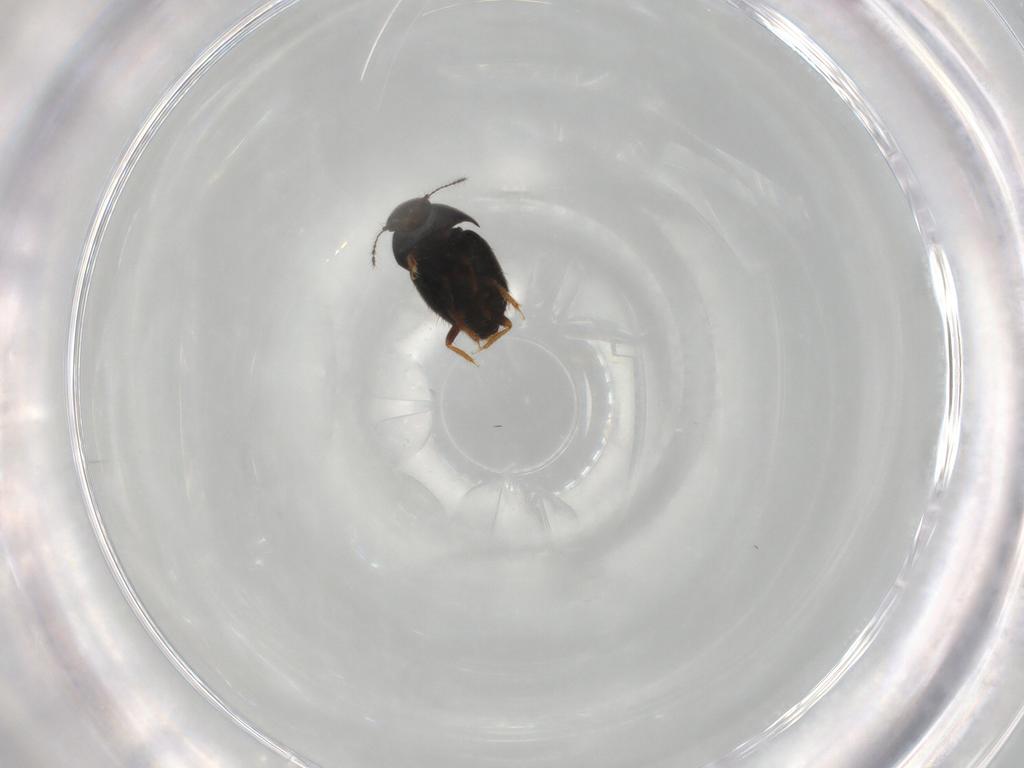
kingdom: Animalia
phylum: Arthropoda
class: Insecta
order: Coleoptera
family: Ptiliidae
